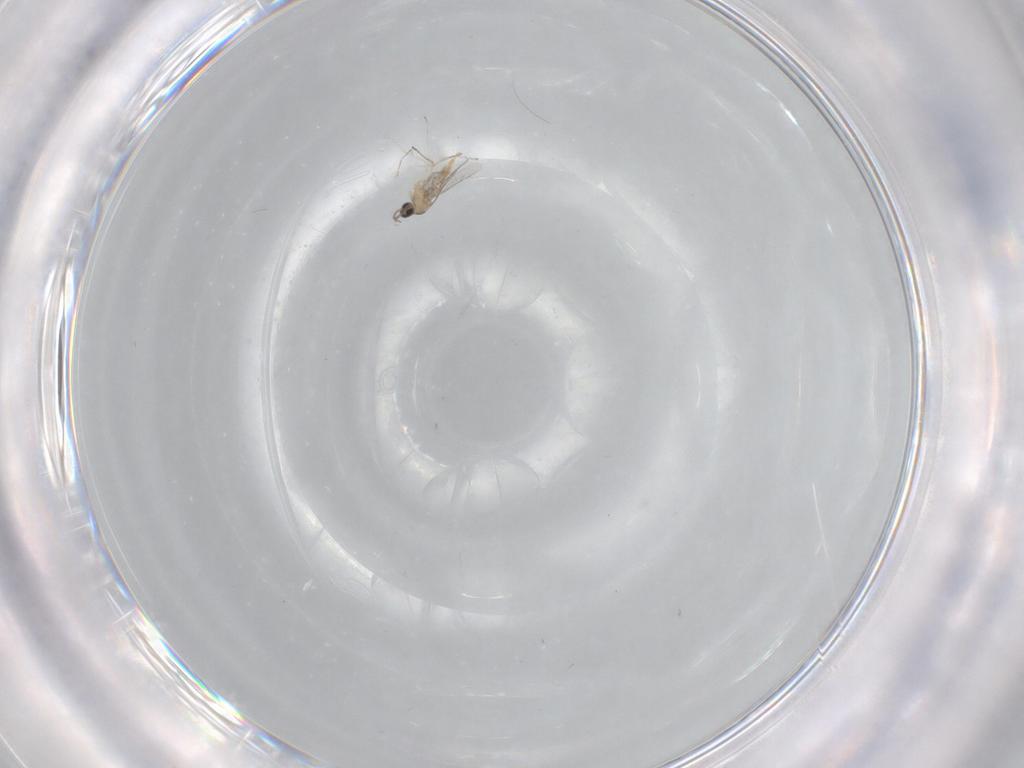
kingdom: Animalia
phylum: Arthropoda
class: Insecta
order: Diptera
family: Cecidomyiidae
